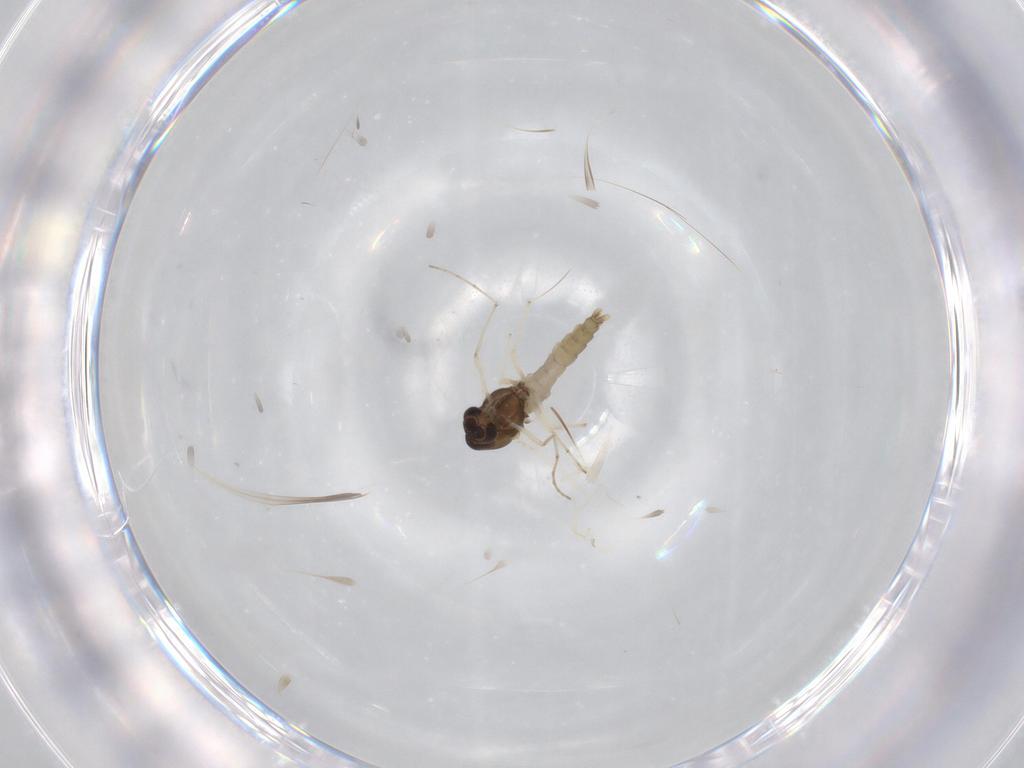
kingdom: Animalia
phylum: Arthropoda
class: Insecta
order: Diptera
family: Chironomidae
